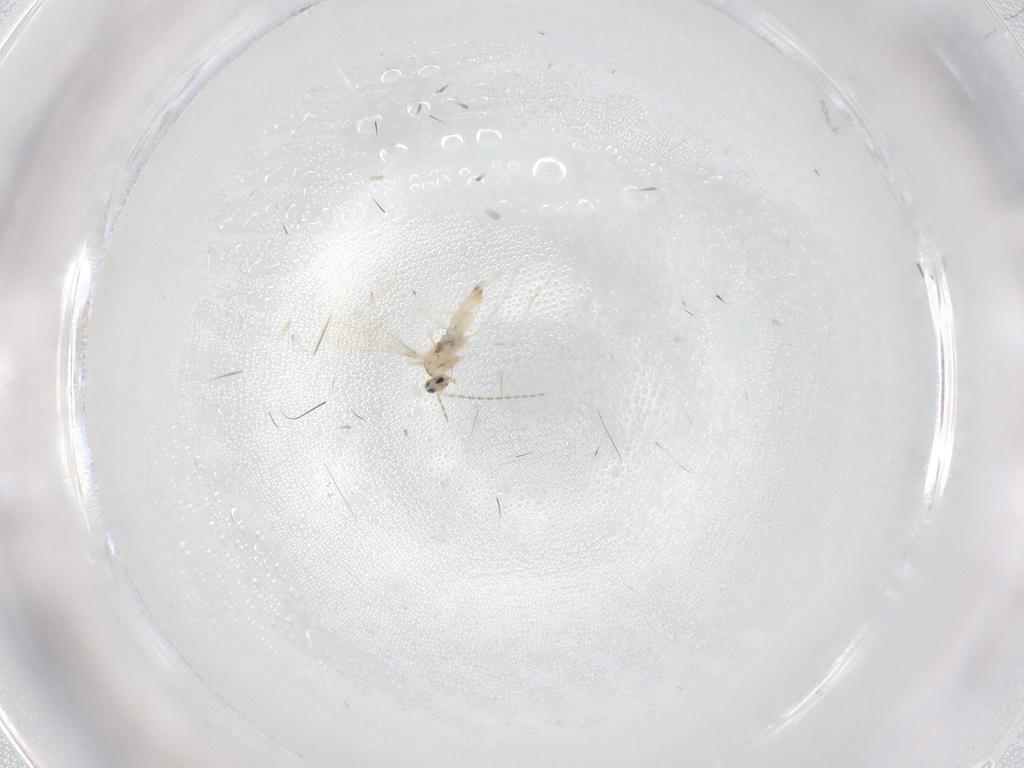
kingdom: Animalia
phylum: Arthropoda
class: Insecta
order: Diptera
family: Cecidomyiidae
